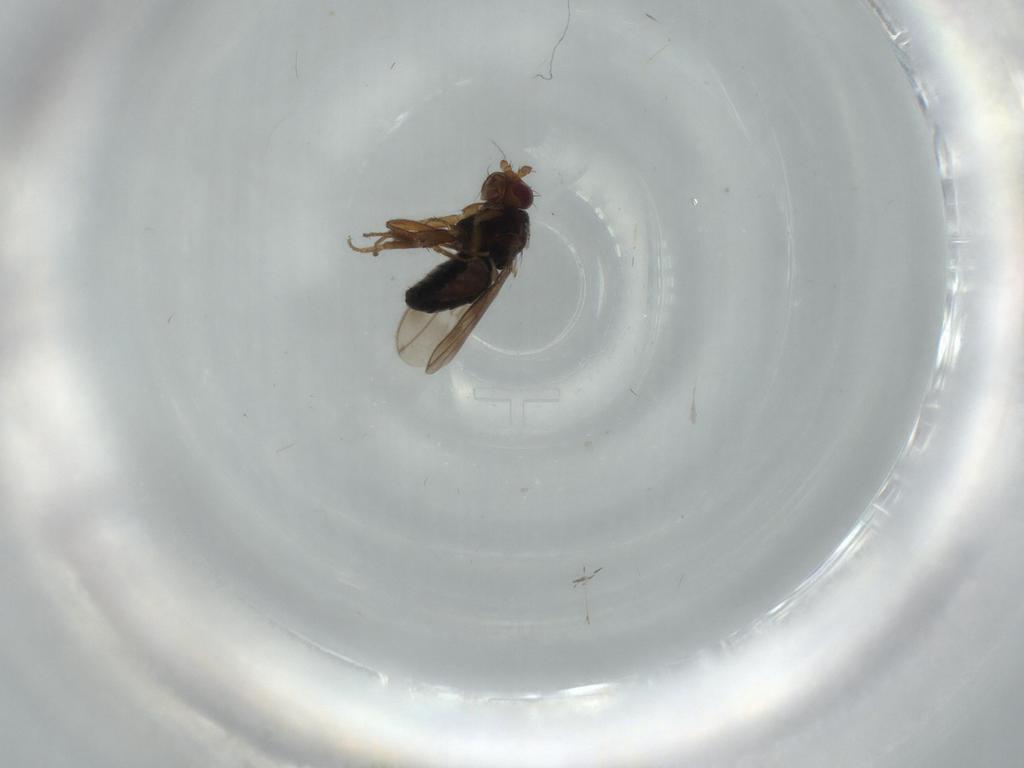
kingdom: Animalia
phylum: Arthropoda
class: Insecta
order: Diptera
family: Sphaeroceridae
